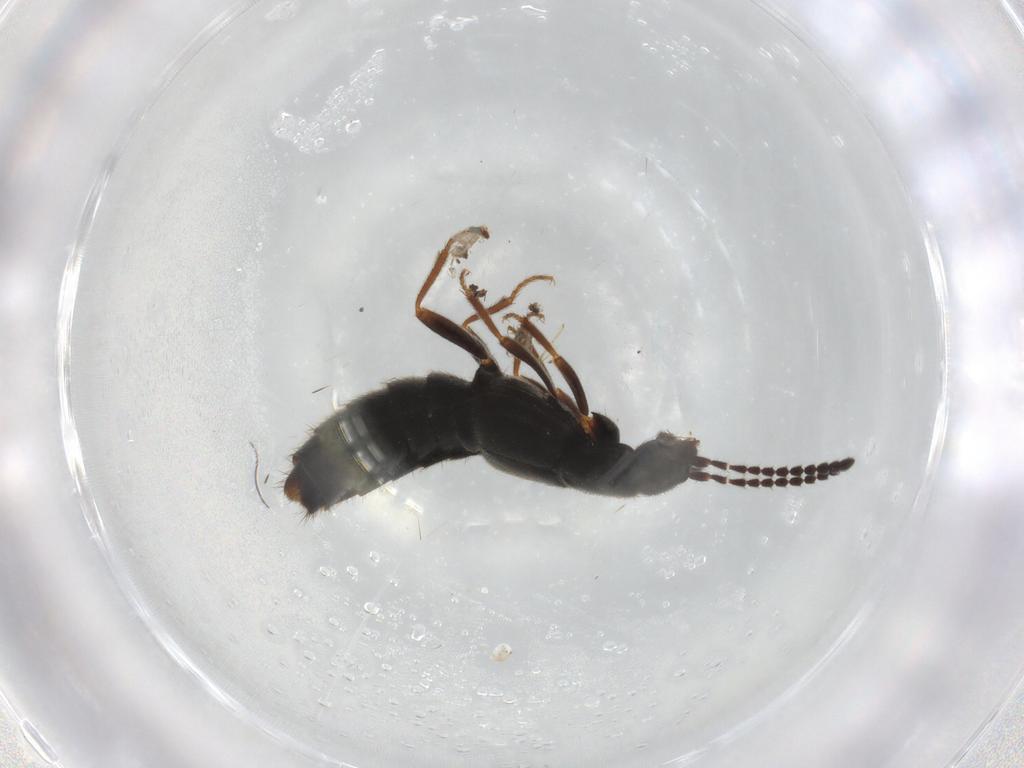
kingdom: Animalia
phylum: Arthropoda
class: Insecta
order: Coleoptera
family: Staphylinidae
